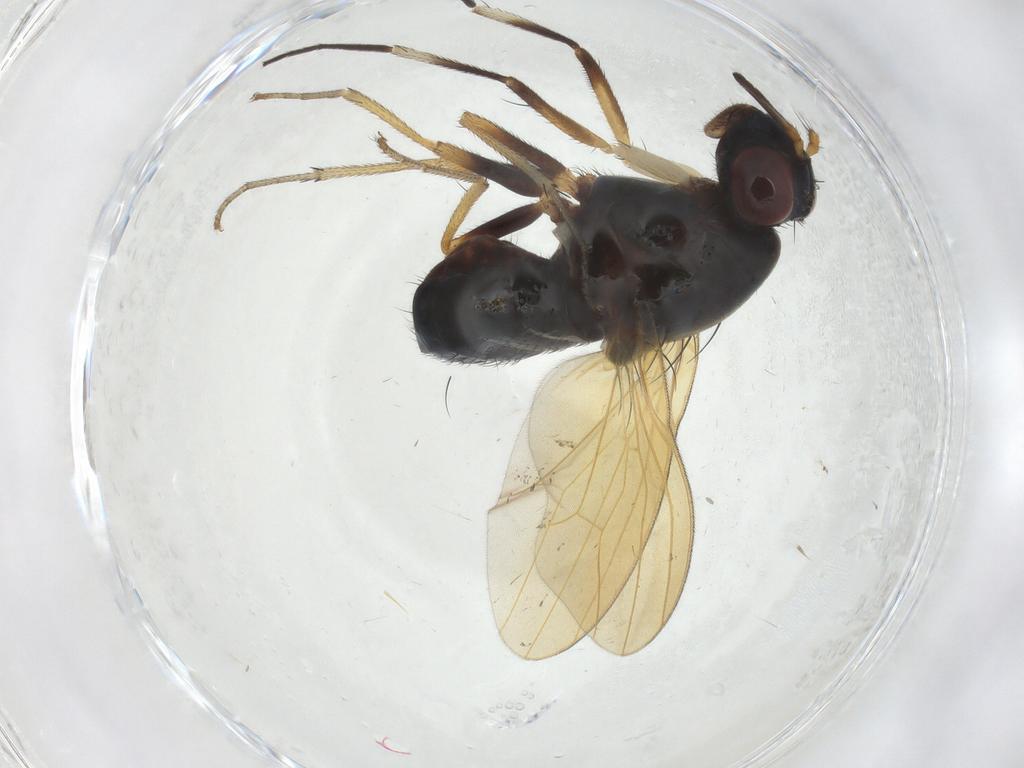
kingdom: Animalia
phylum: Arthropoda
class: Insecta
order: Diptera
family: Lauxaniidae
